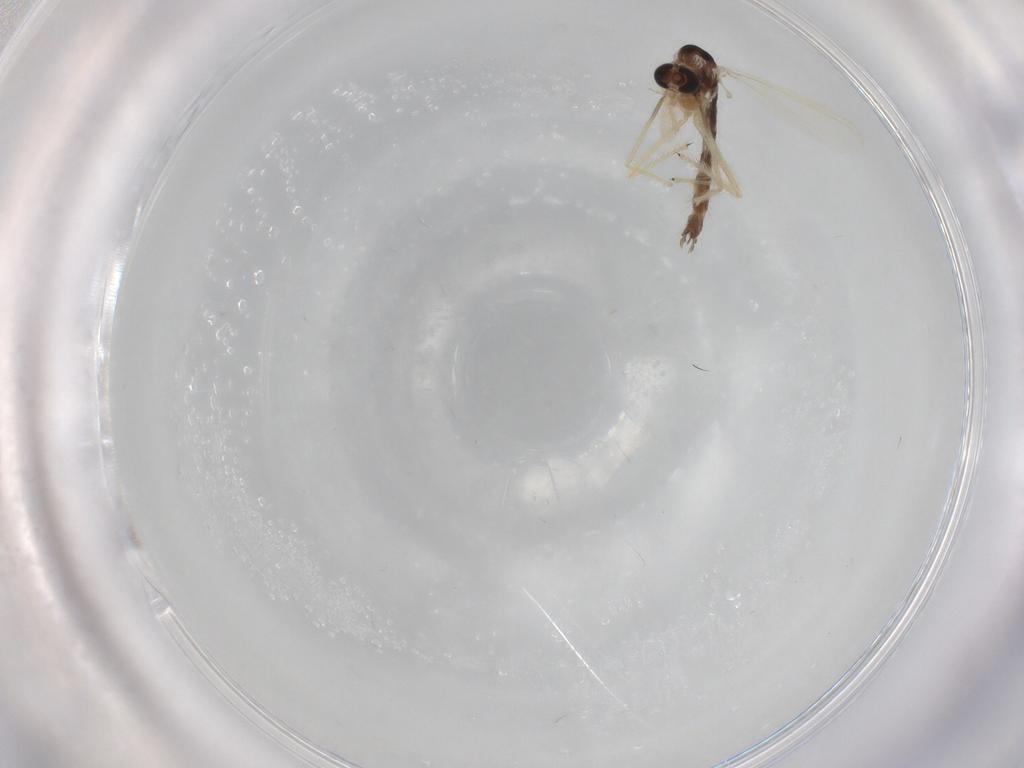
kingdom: Animalia
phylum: Arthropoda
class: Insecta
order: Diptera
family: Chironomidae
